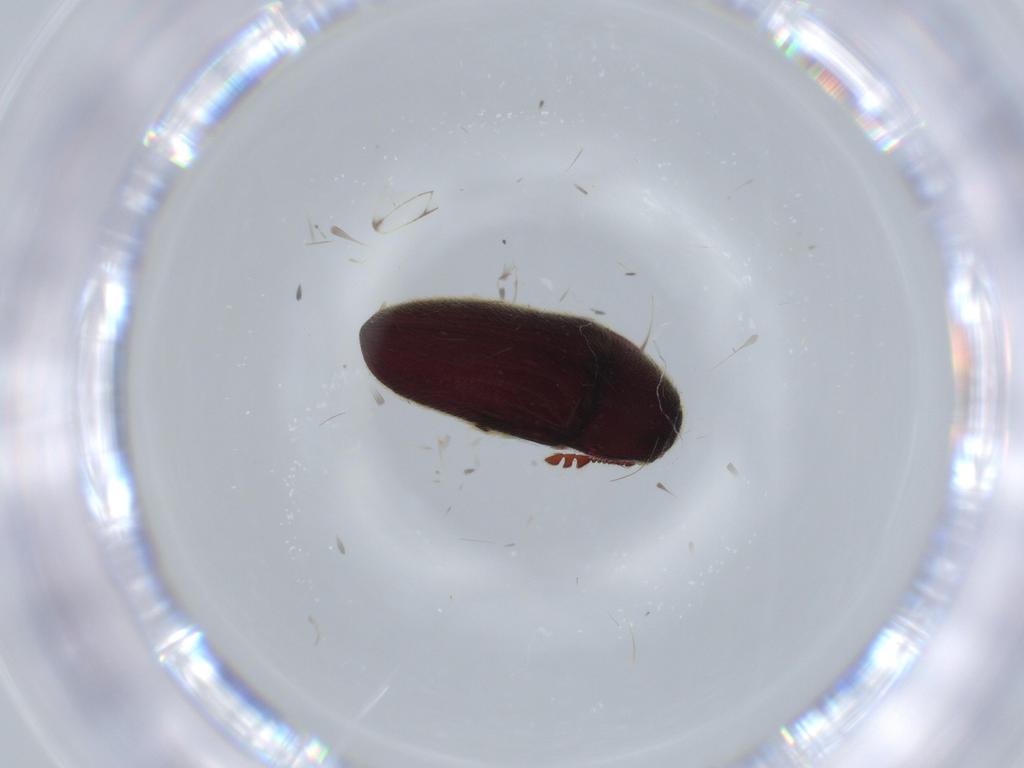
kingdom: Animalia
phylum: Arthropoda
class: Insecta
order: Coleoptera
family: Throscidae
